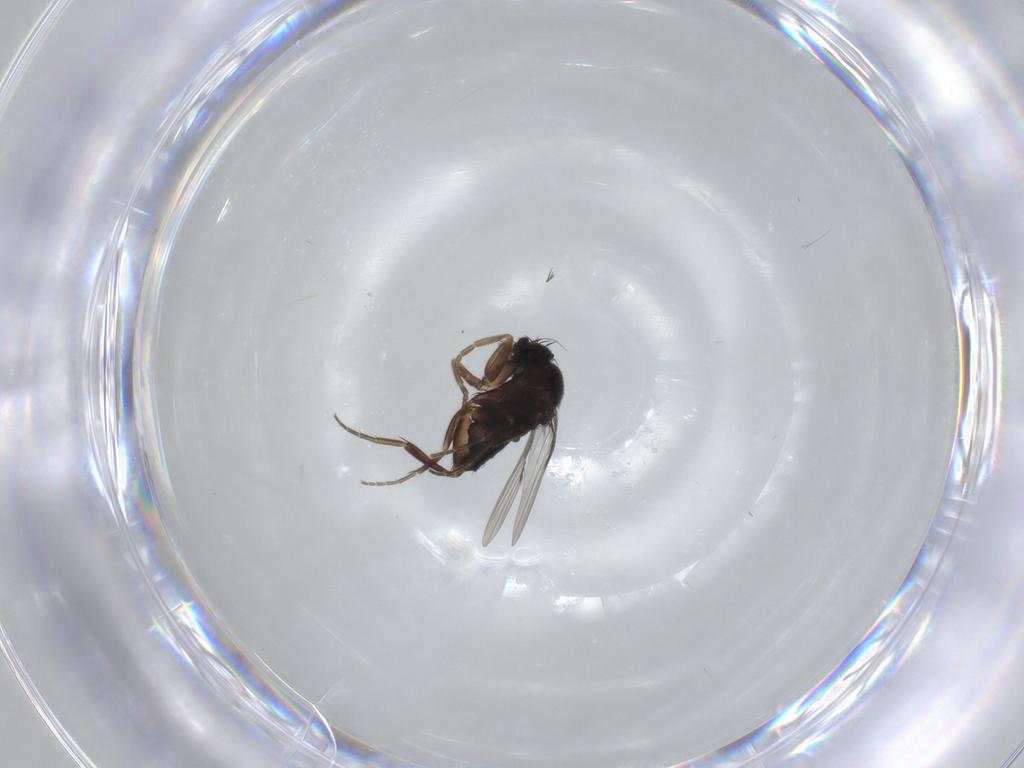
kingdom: Animalia
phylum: Arthropoda
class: Insecta
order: Diptera
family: Phoridae
